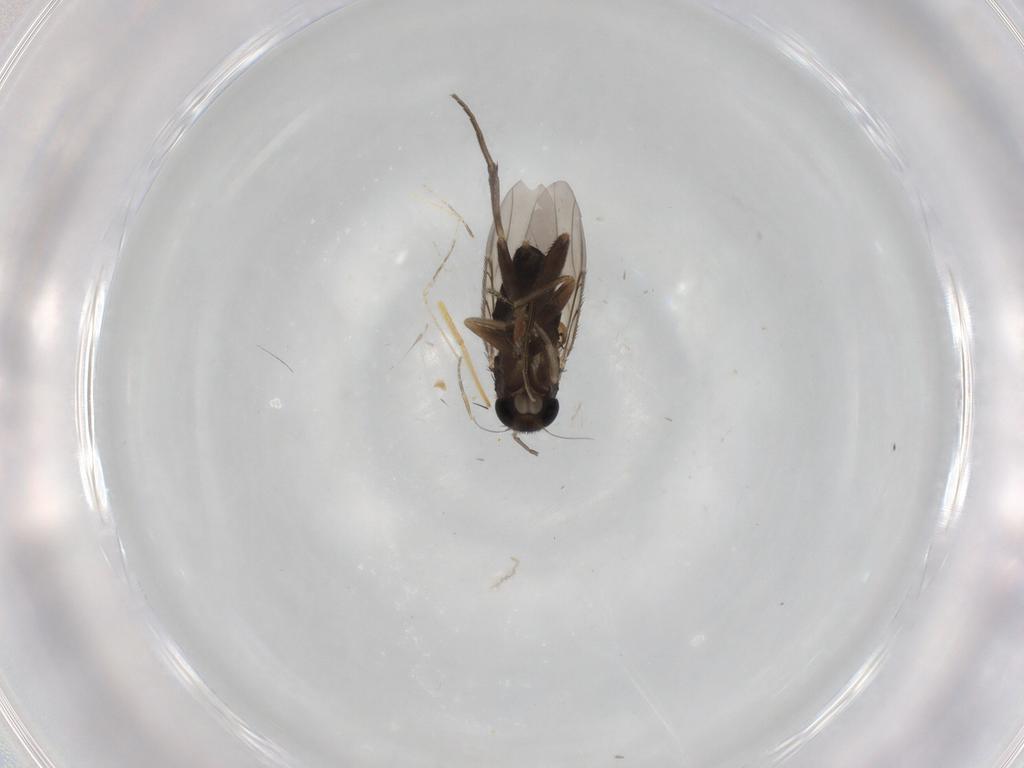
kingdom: Animalia
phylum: Arthropoda
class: Insecta
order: Diptera
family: Phoridae
